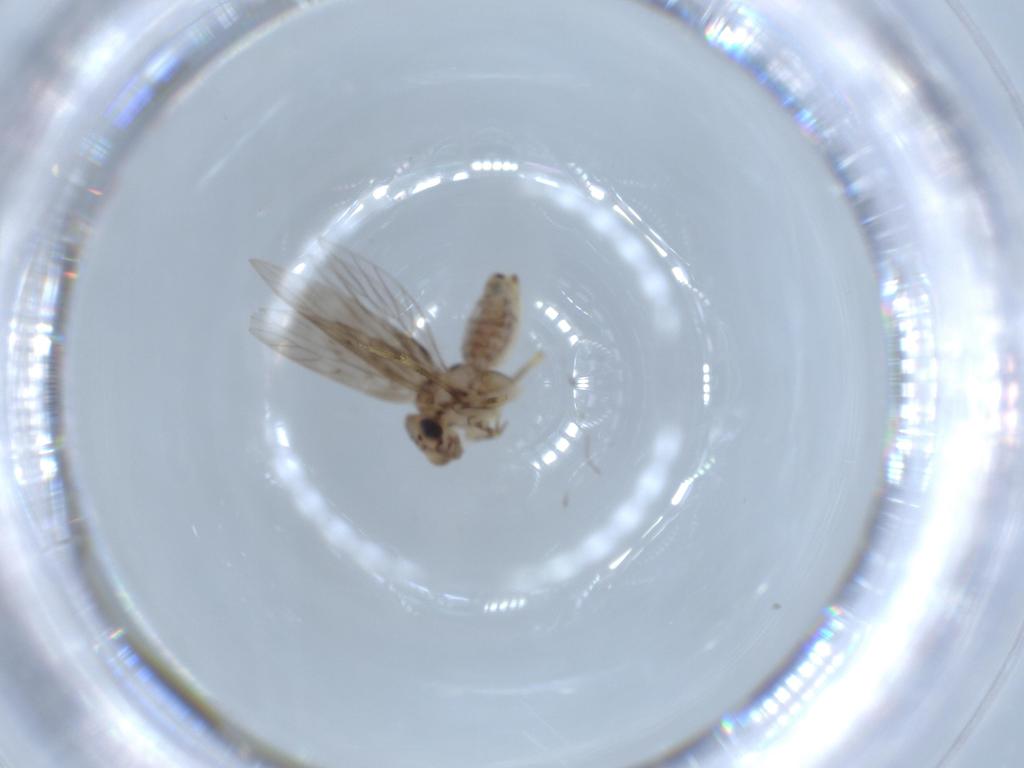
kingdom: Animalia
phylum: Arthropoda
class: Insecta
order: Psocodea
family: Lepidopsocidae
